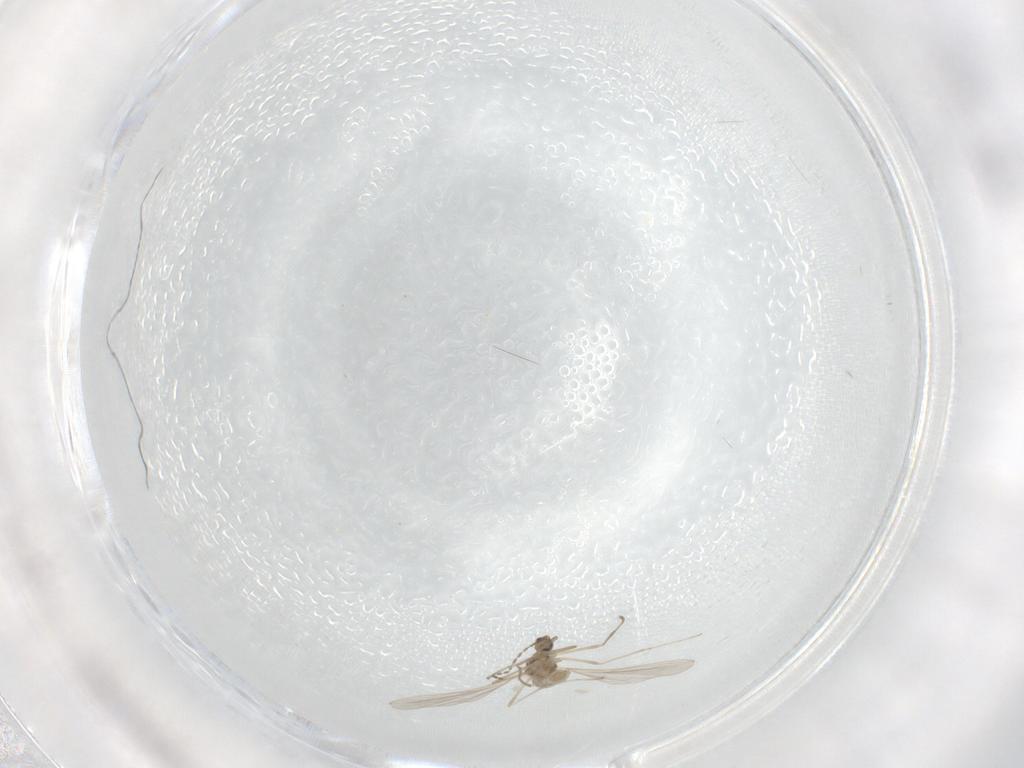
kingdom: Animalia
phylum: Arthropoda
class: Insecta
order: Diptera
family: Cecidomyiidae
